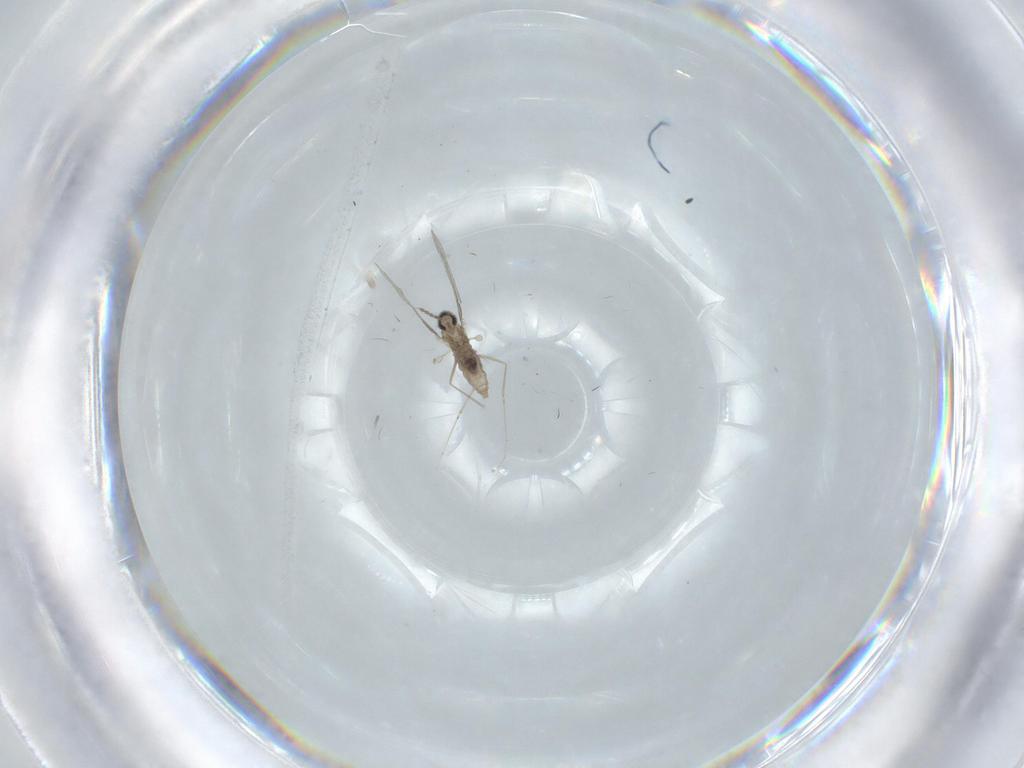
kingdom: Animalia
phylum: Arthropoda
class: Insecta
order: Diptera
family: Cecidomyiidae
